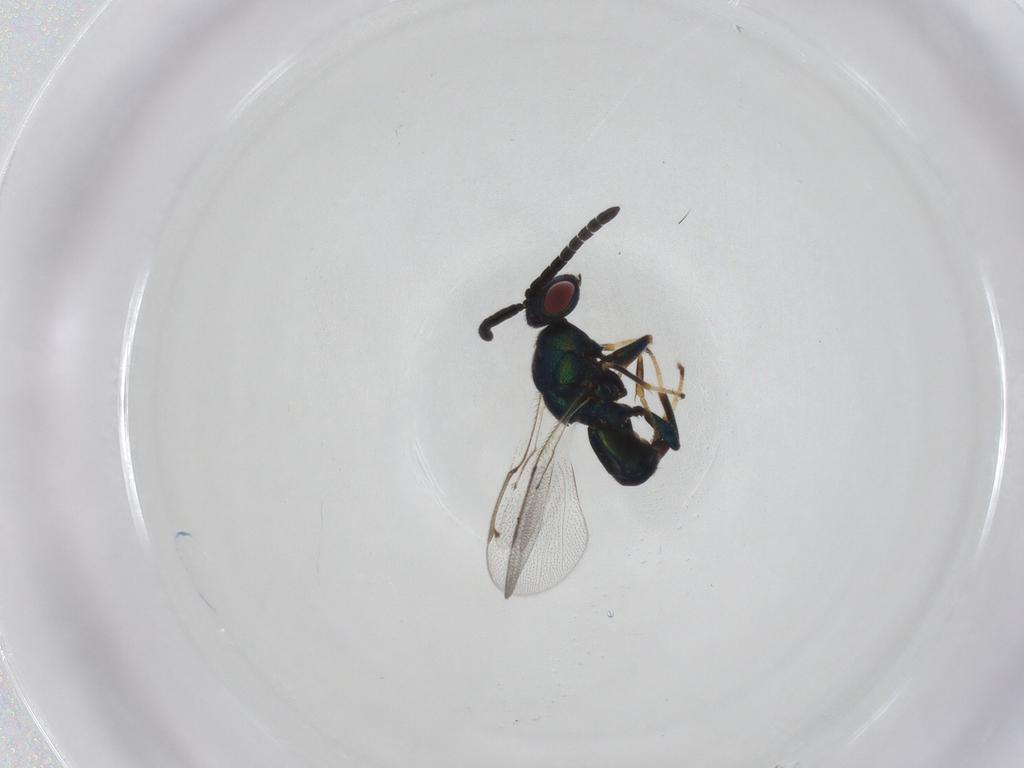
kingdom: Animalia
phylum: Arthropoda
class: Insecta
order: Hymenoptera
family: Torymidae
